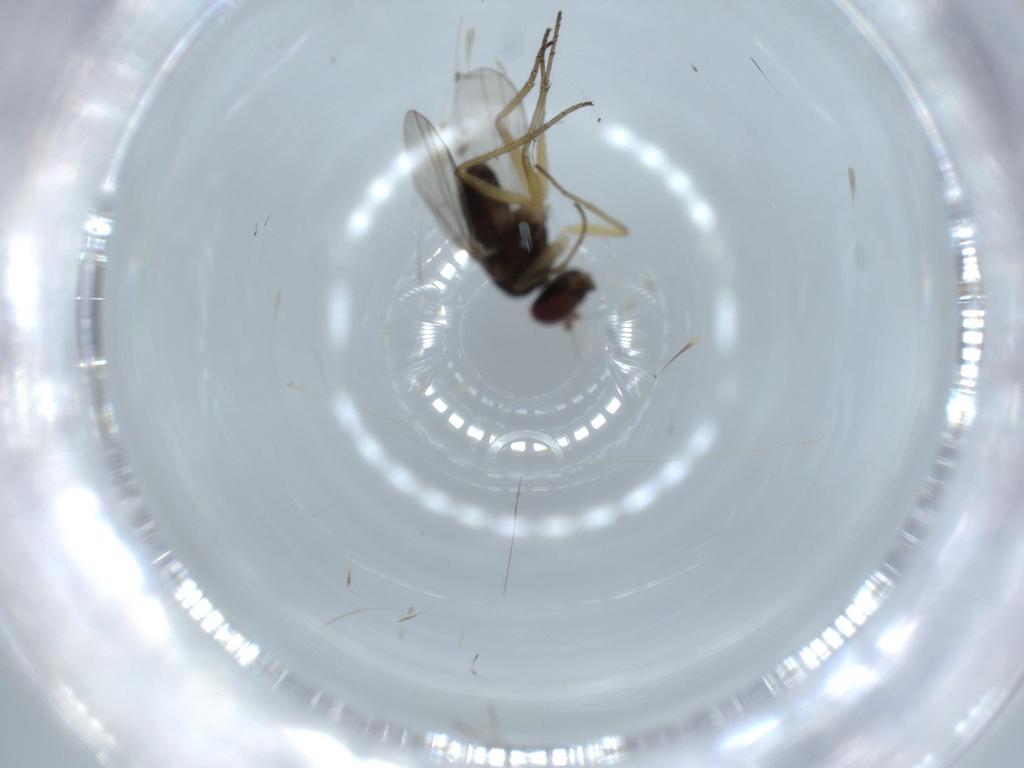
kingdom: Animalia
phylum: Arthropoda
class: Insecta
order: Diptera
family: Dolichopodidae
